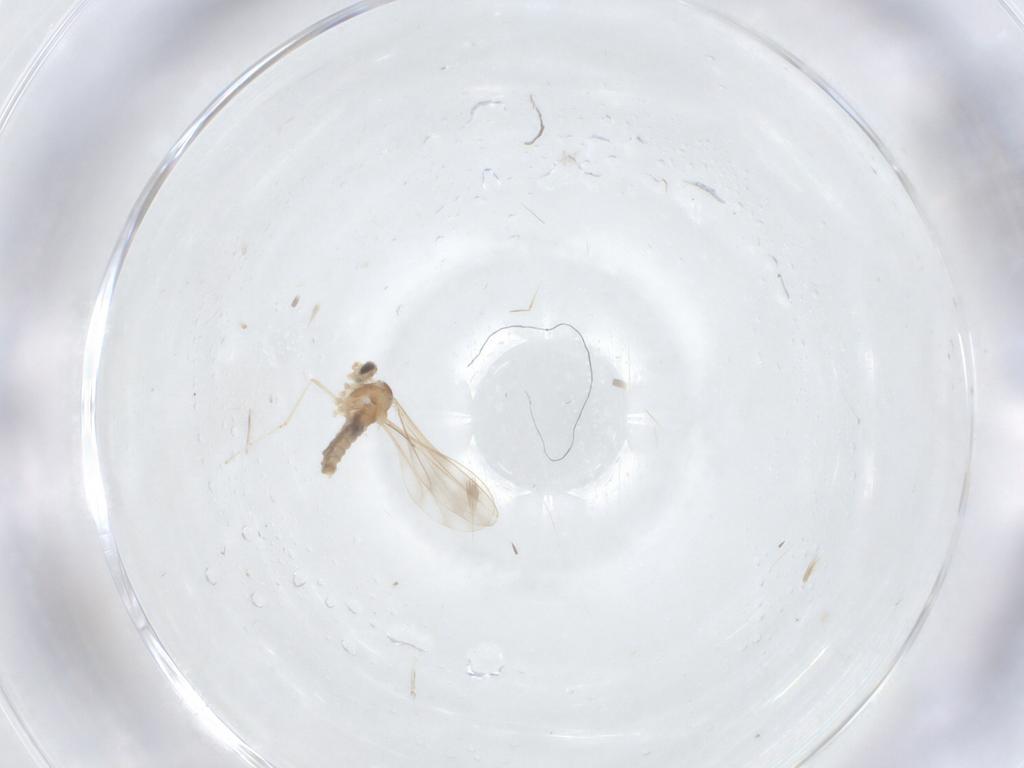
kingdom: Animalia
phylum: Arthropoda
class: Insecta
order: Diptera
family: Cecidomyiidae
